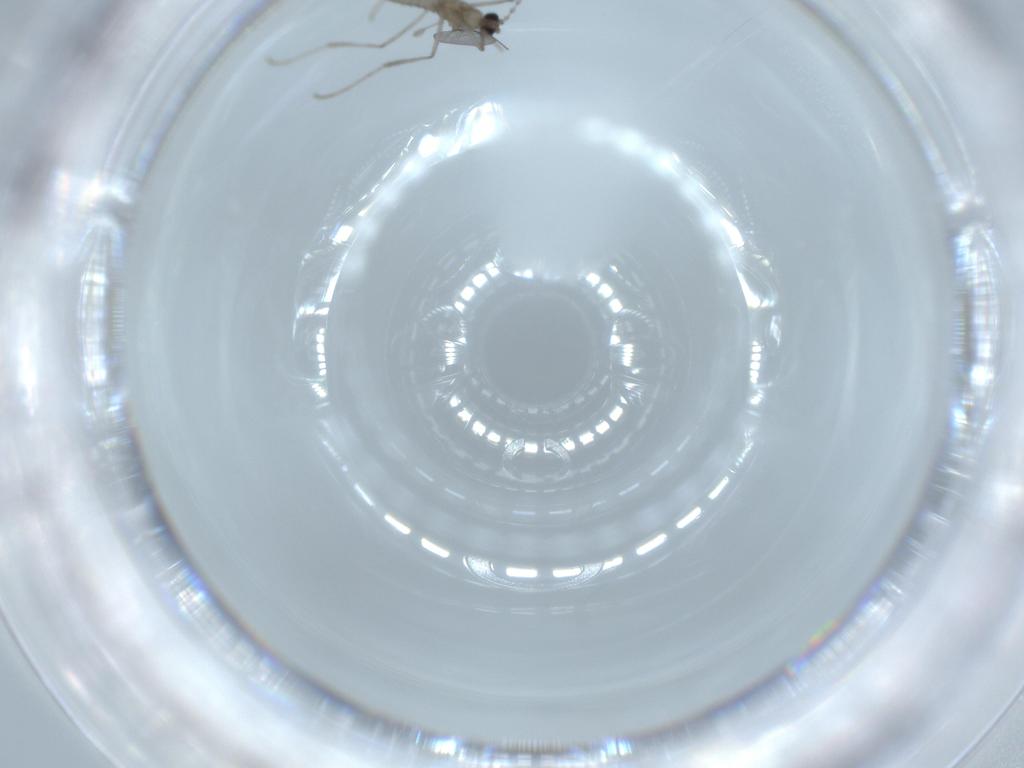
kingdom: Animalia
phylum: Arthropoda
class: Insecta
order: Diptera
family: Cecidomyiidae
